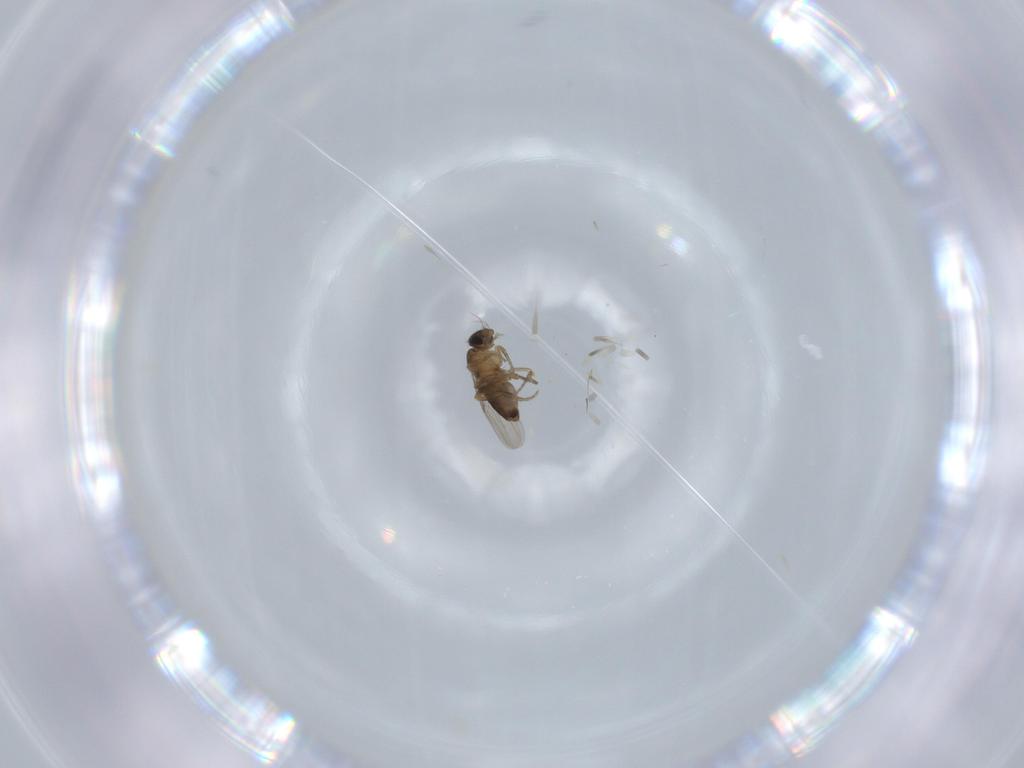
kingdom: Animalia
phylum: Arthropoda
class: Insecta
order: Diptera
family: Phoridae
